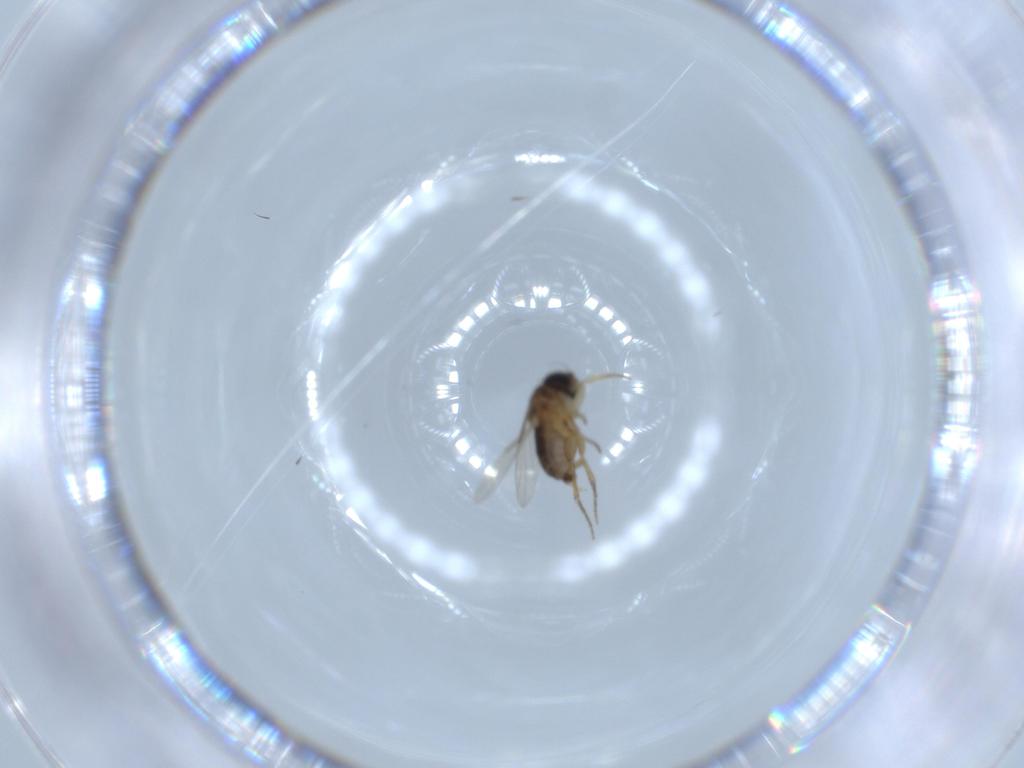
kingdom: Animalia
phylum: Arthropoda
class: Insecta
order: Diptera
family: Phoridae
